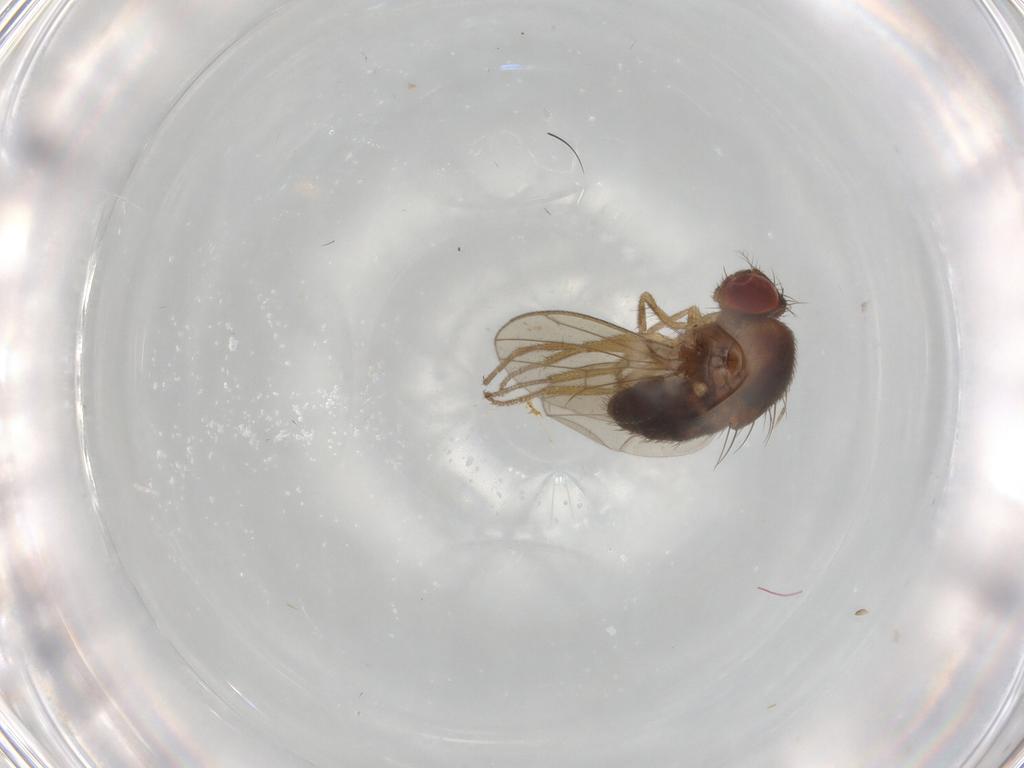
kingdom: Animalia
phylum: Arthropoda
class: Insecta
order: Diptera
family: Drosophilidae
